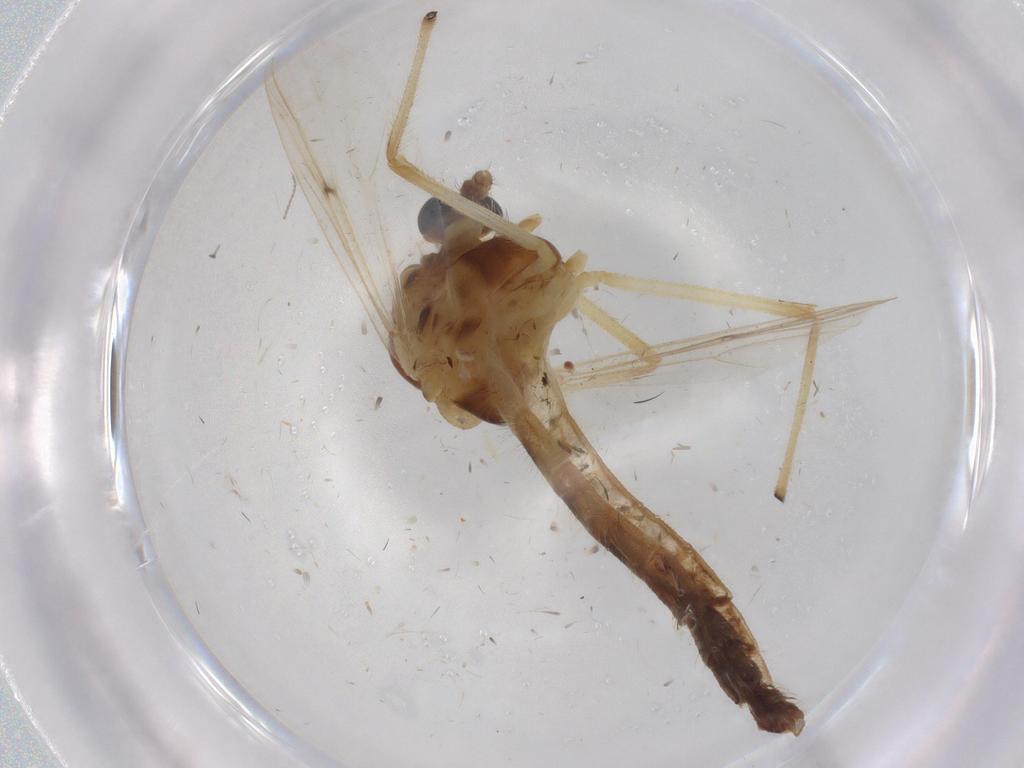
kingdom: Animalia
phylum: Arthropoda
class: Insecta
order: Diptera
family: Chironomidae
